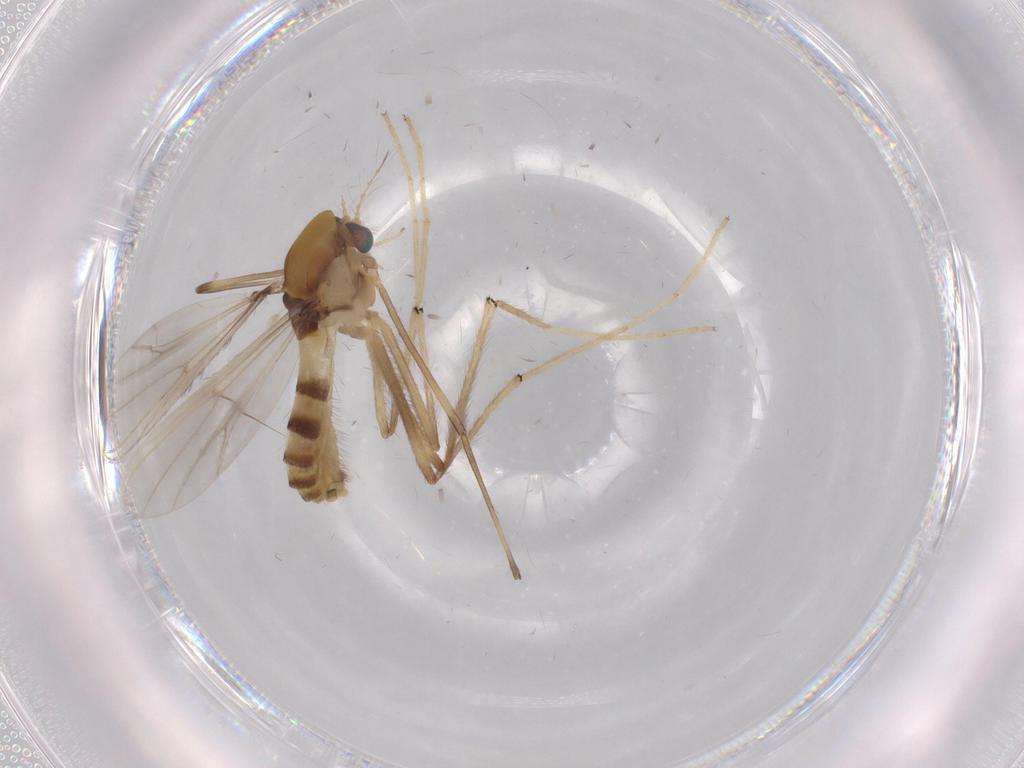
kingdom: Animalia
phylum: Arthropoda
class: Insecta
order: Diptera
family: Chironomidae
